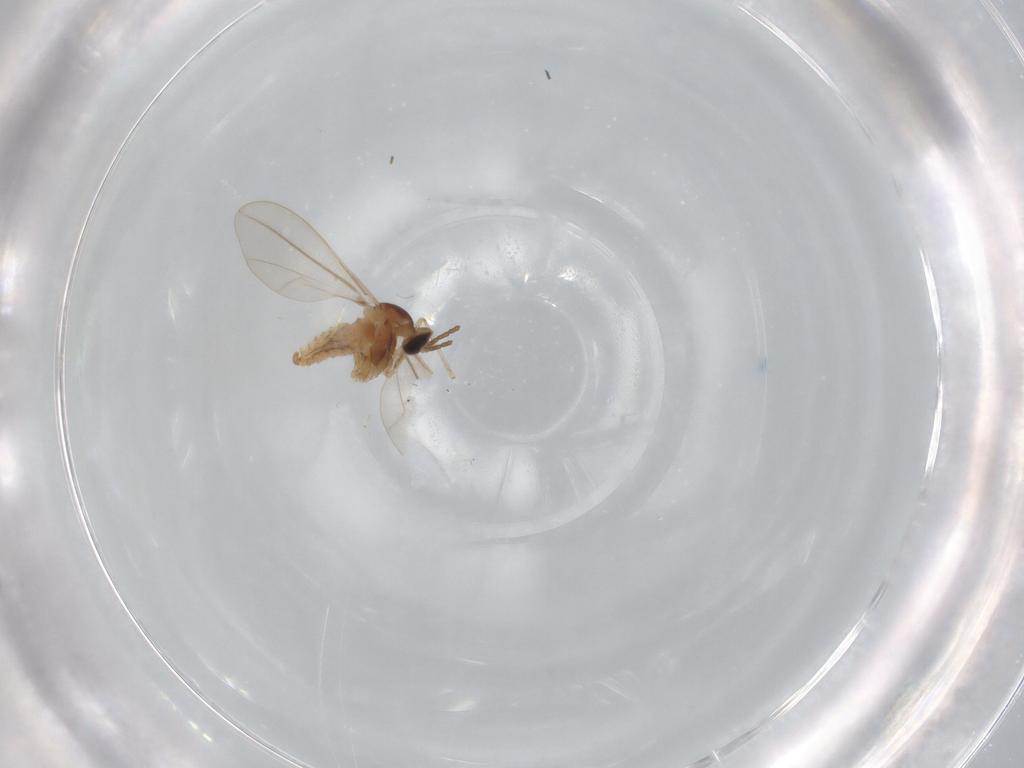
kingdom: Animalia
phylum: Arthropoda
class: Insecta
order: Diptera
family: Cecidomyiidae
